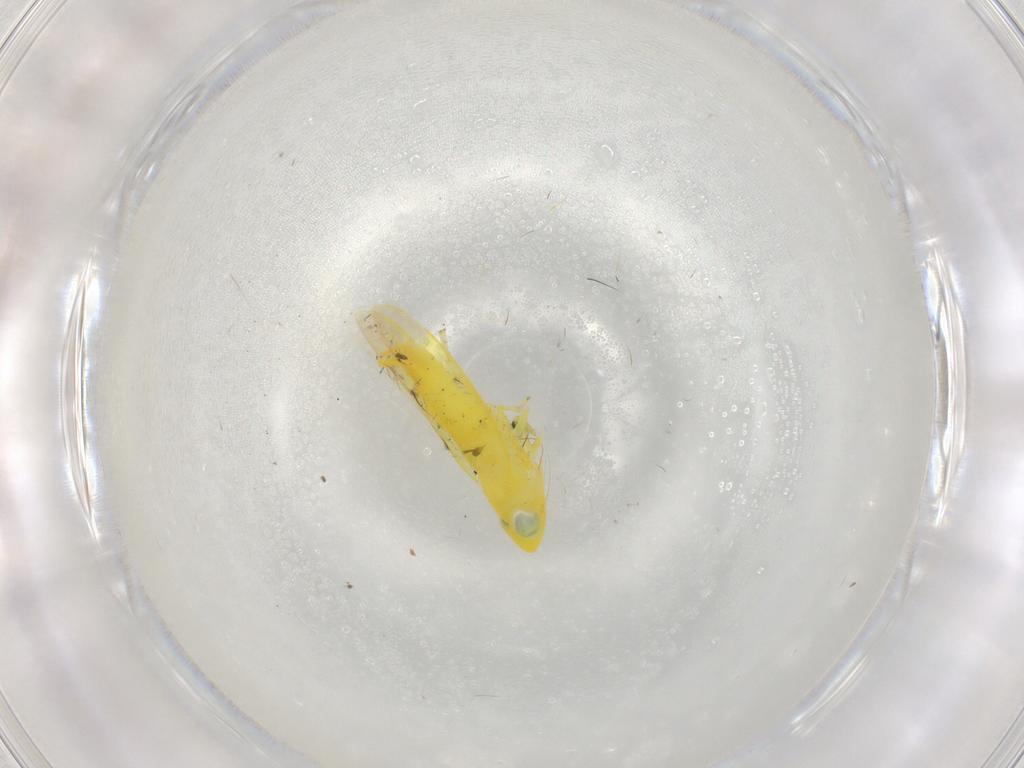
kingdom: Animalia
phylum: Arthropoda
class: Insecta
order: Hemiptera
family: Cicadellidae
